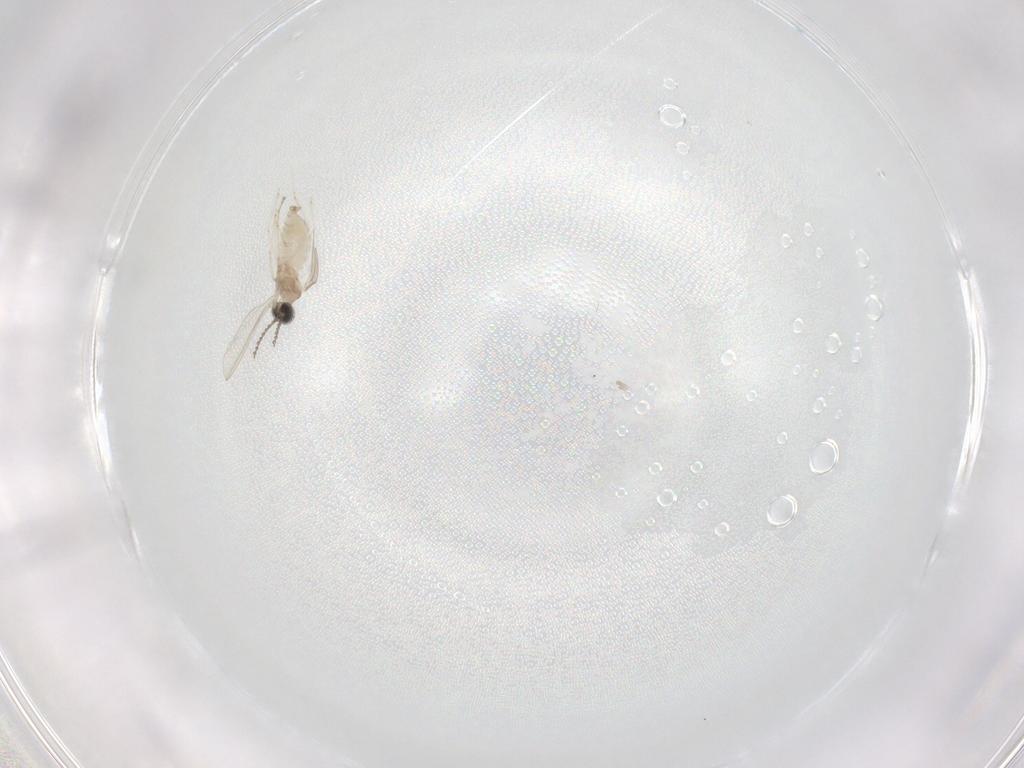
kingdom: Animalia
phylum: Arthropoda
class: Insecta
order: Diptera
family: Cecidomyiidae
